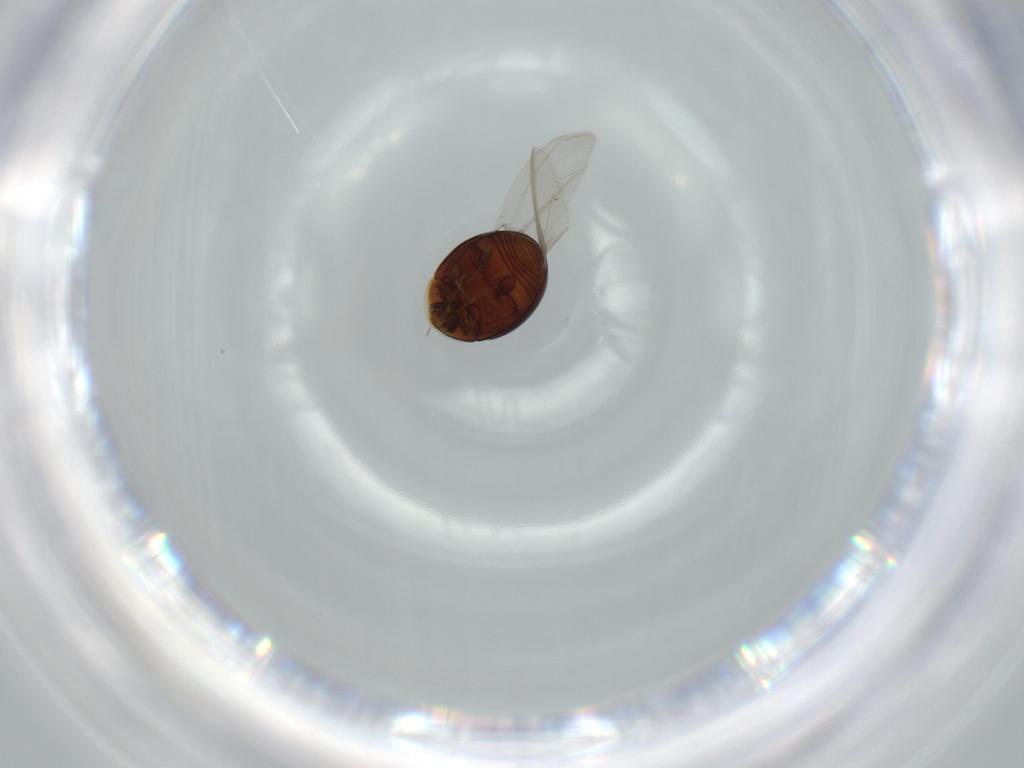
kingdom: Animalia
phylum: Arthropoda
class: Insecta
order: Coleoptera
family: Corylophidae
